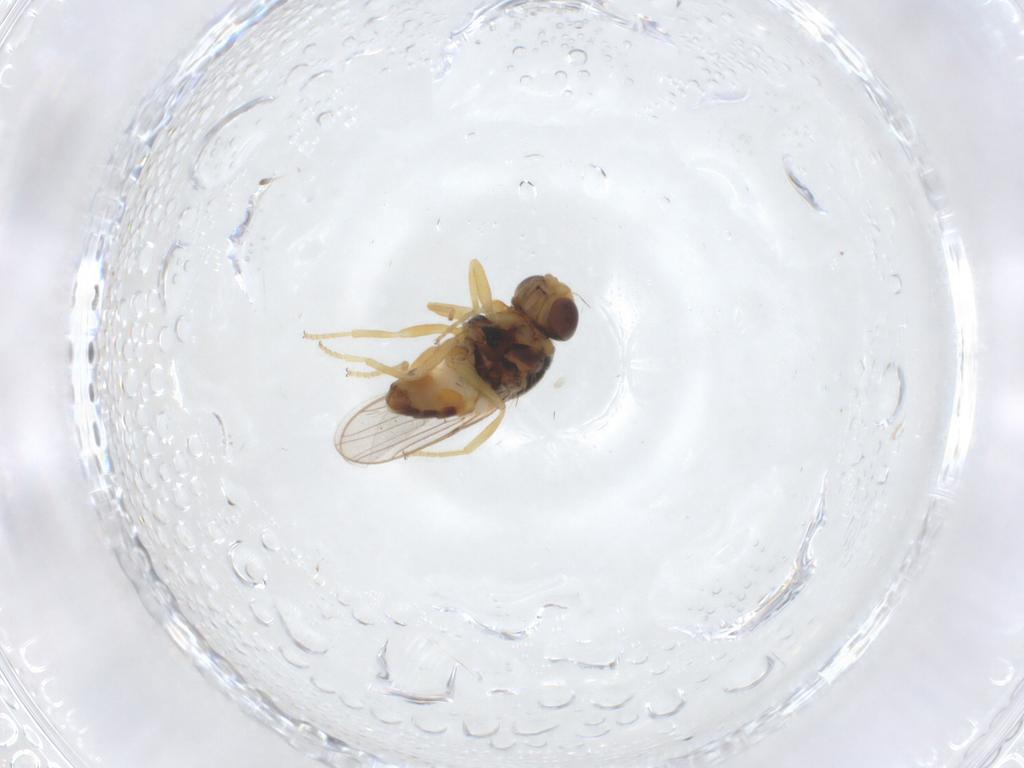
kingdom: Animalia
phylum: Arthropoda
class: Insecta
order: Diptera
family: Chloropidae
